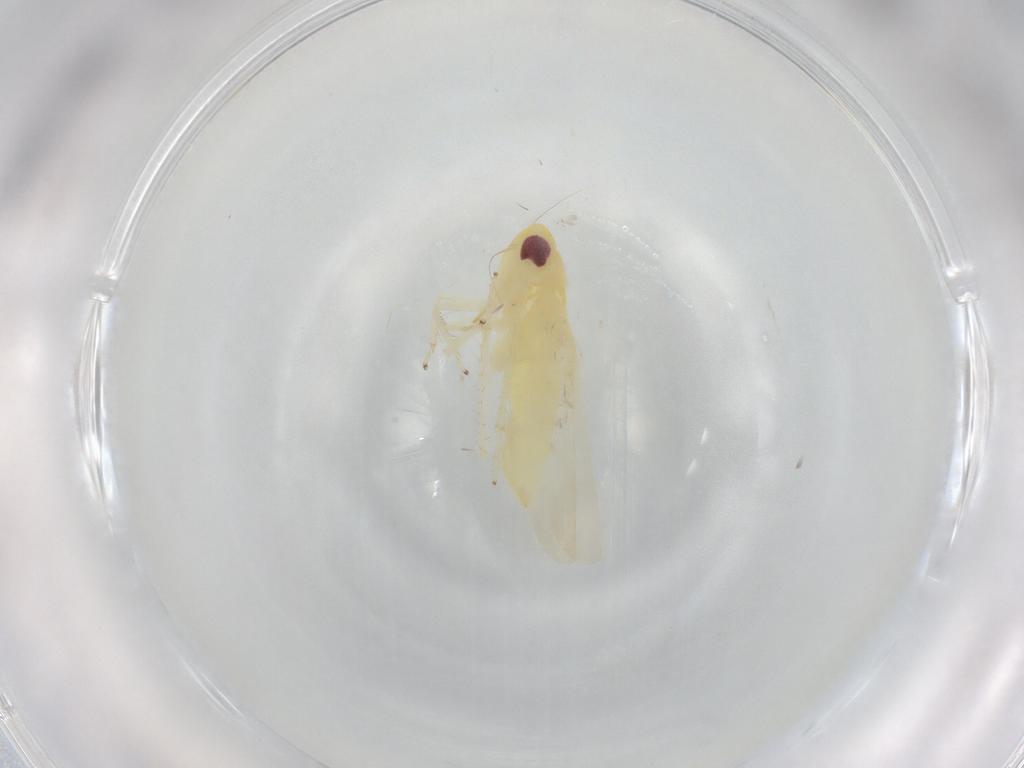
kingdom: Animalia
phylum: Arthropoda
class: Insecta
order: Hemiptera
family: Cicadellidae
